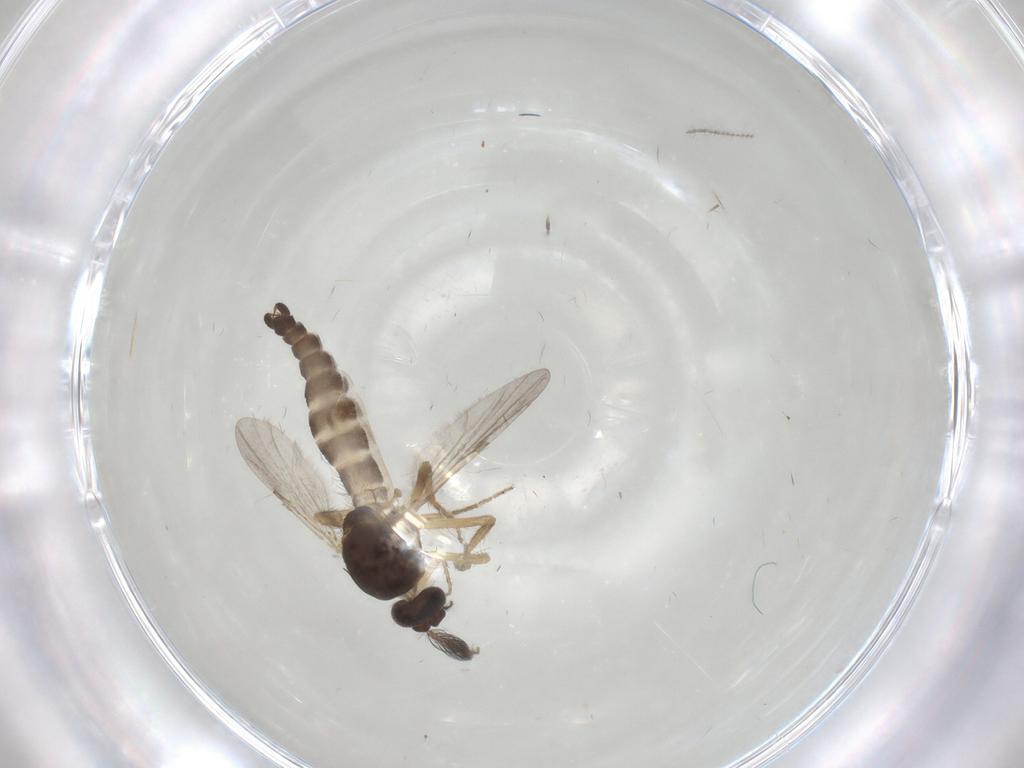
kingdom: Animalia
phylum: Arthropoda
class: Insecta
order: Diptera
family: Cecidomyiidae
